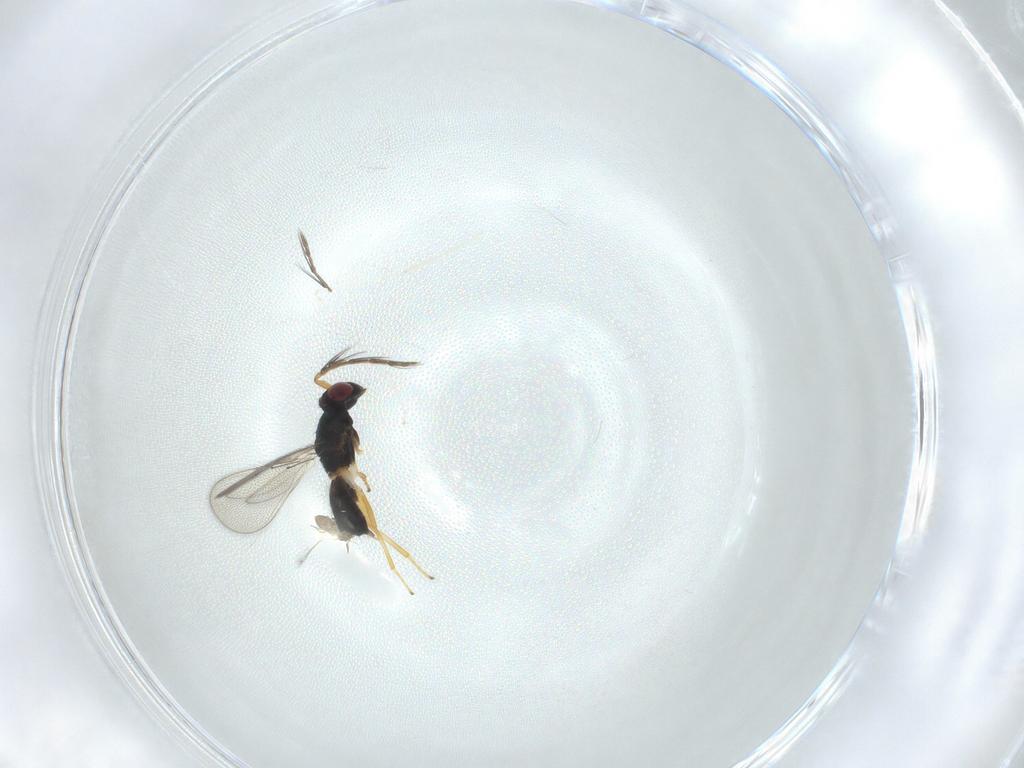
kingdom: Animalia
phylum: Arthropoda
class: Insecta
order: Hymenoptera
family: Eulophidae
